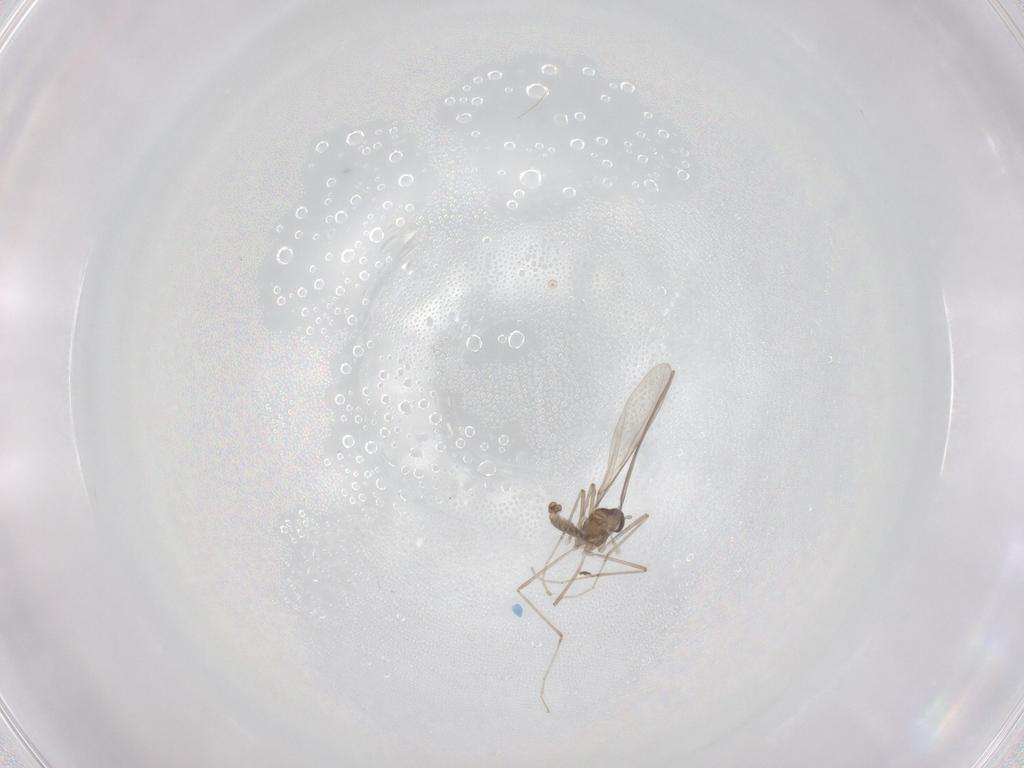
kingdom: Animalia
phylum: Arthropoda
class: Insecta
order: Diptera
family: Cecidomyiidae
